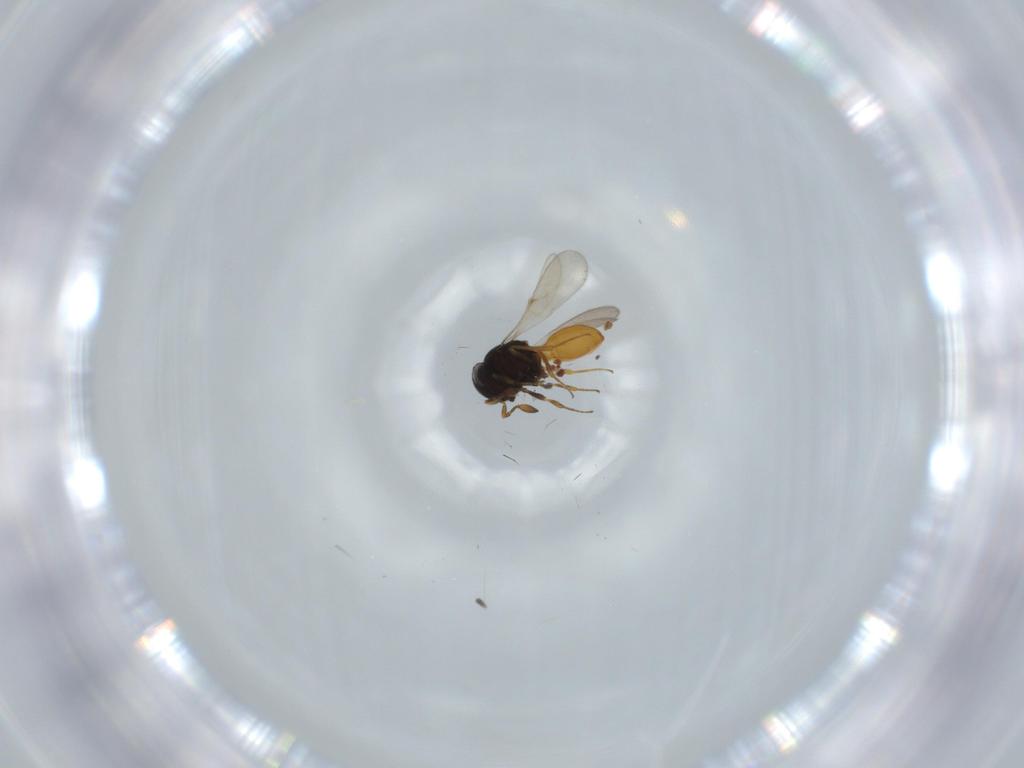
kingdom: Animalia
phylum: Arthropoda
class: Insecta
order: Hymenoptera
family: Scelionidae
